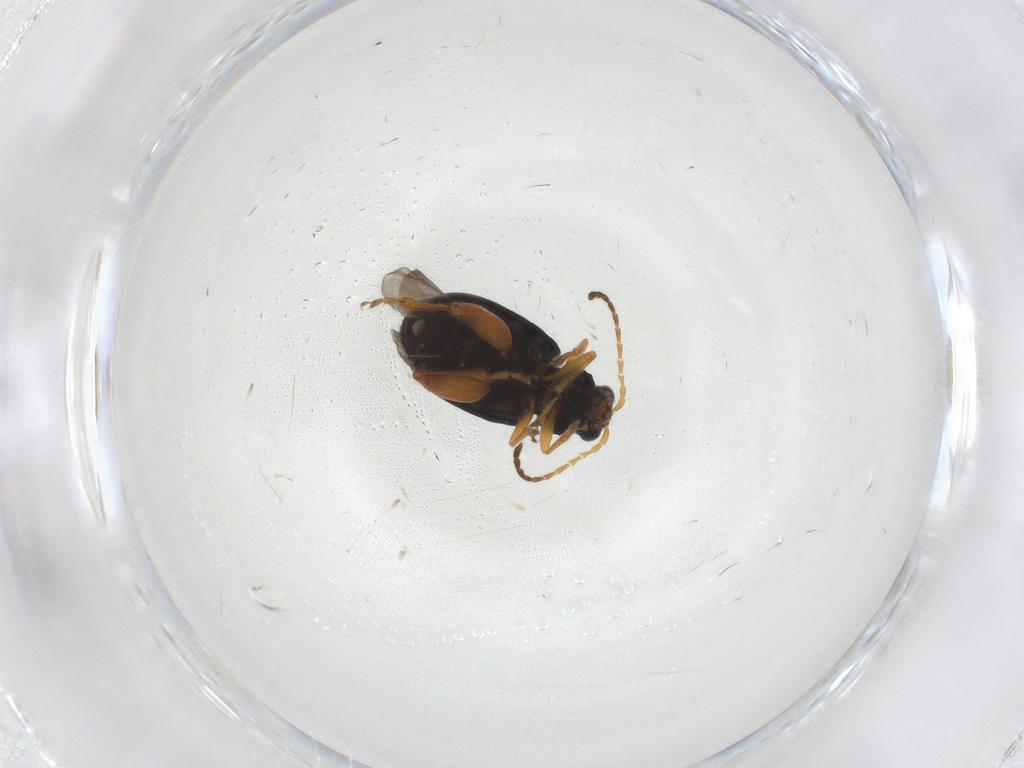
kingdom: Animalia
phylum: Arthropoda
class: Insecta
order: Coleoptera
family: Chrysomelidae
